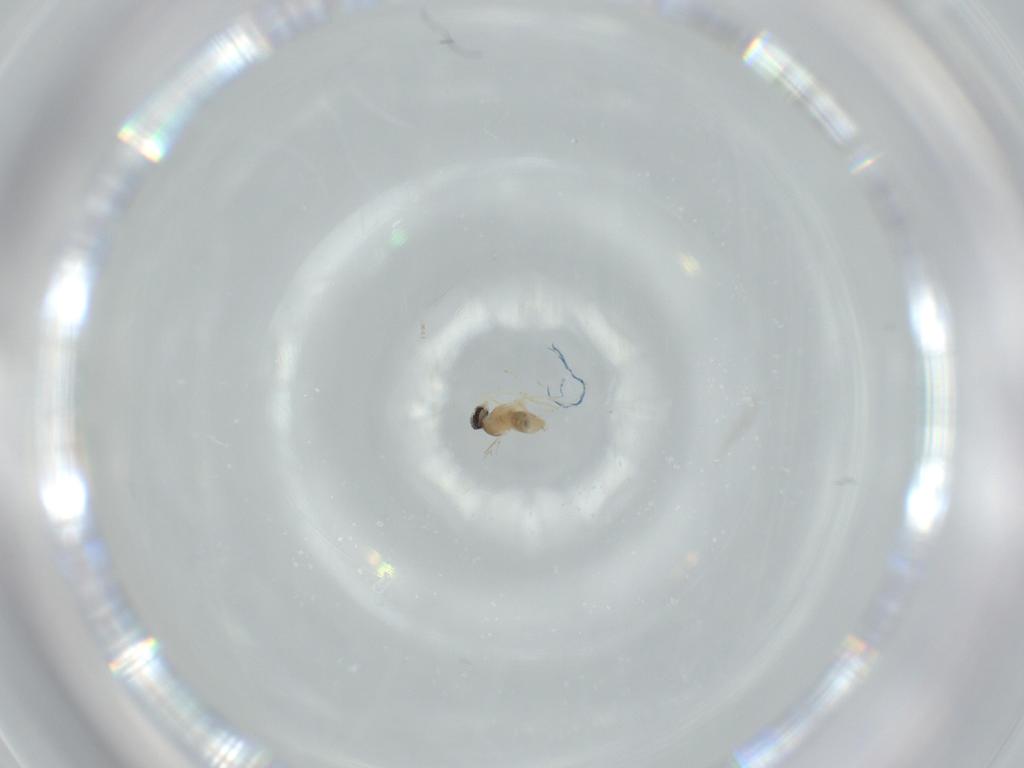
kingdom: Animalia
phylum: Arthropoda
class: Insecta
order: Diptera
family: Cecidomyiidae
